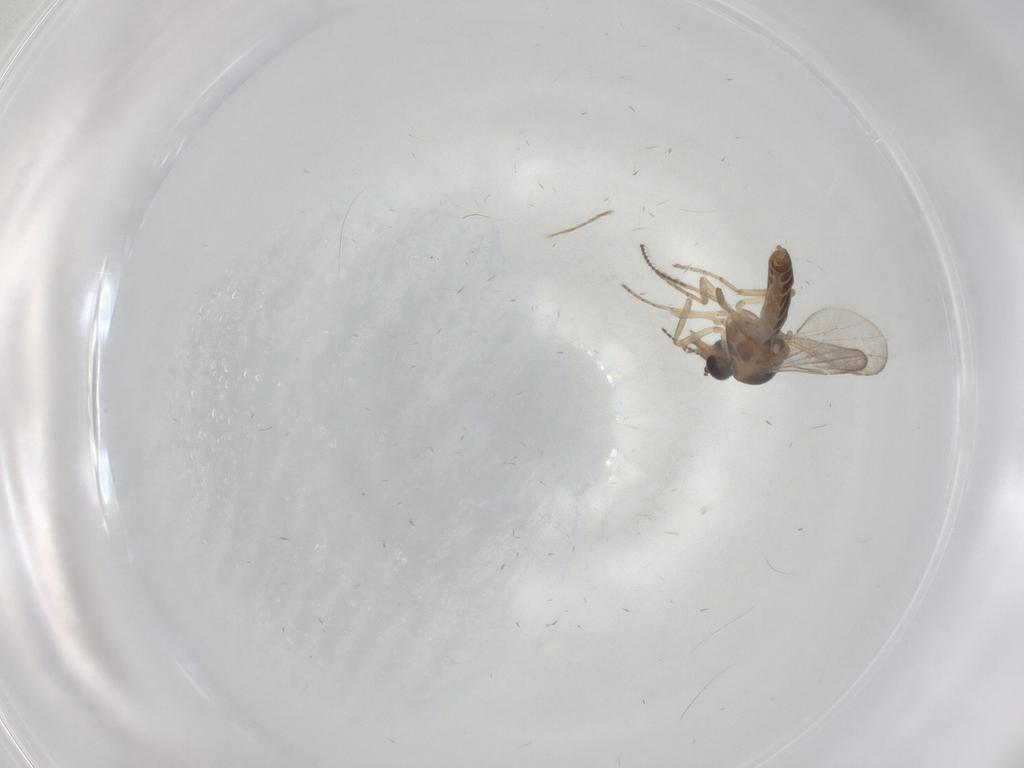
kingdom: Animalia
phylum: Arthropoda
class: Insecta
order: Diptera
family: Ceratopogonidae
